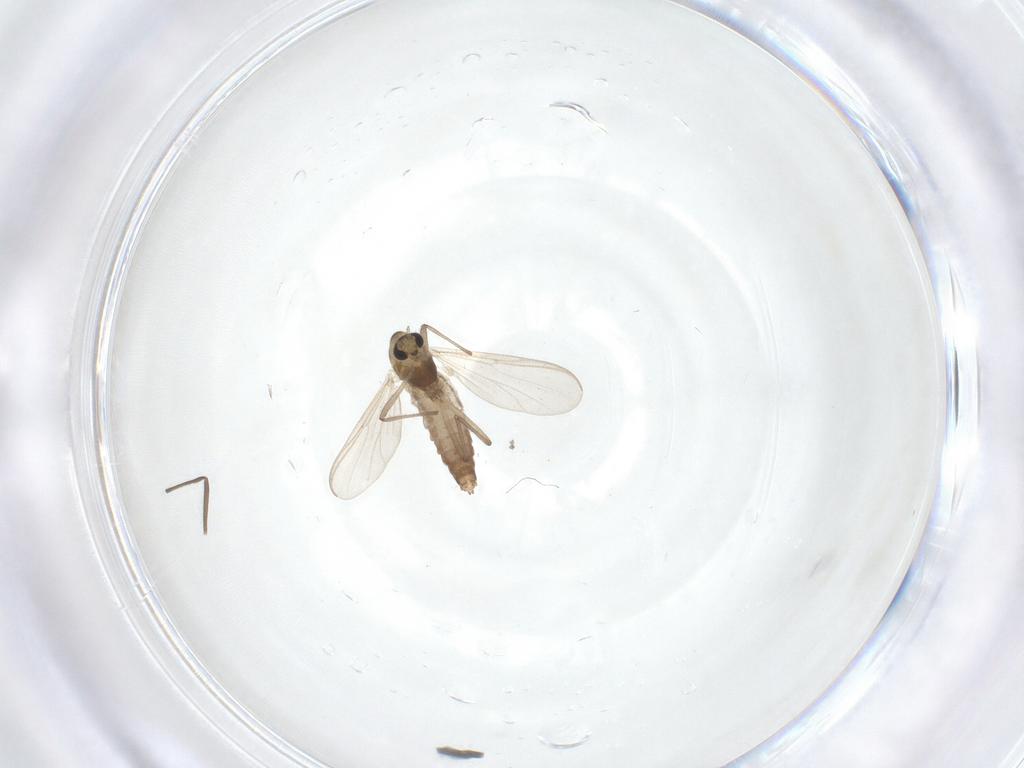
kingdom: Animalia
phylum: Arthropoda
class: Insecta
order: Diptera
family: Chironomidae
